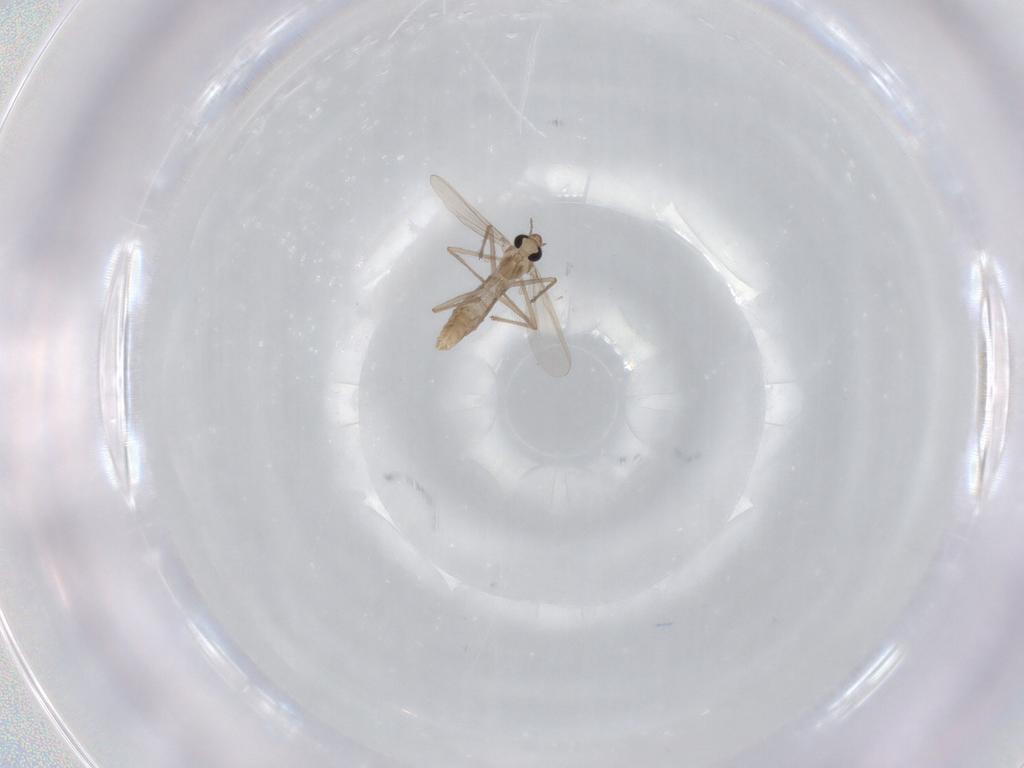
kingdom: Animalia
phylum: Arthropoda
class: Insecta
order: Diptera
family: Chironomidae
